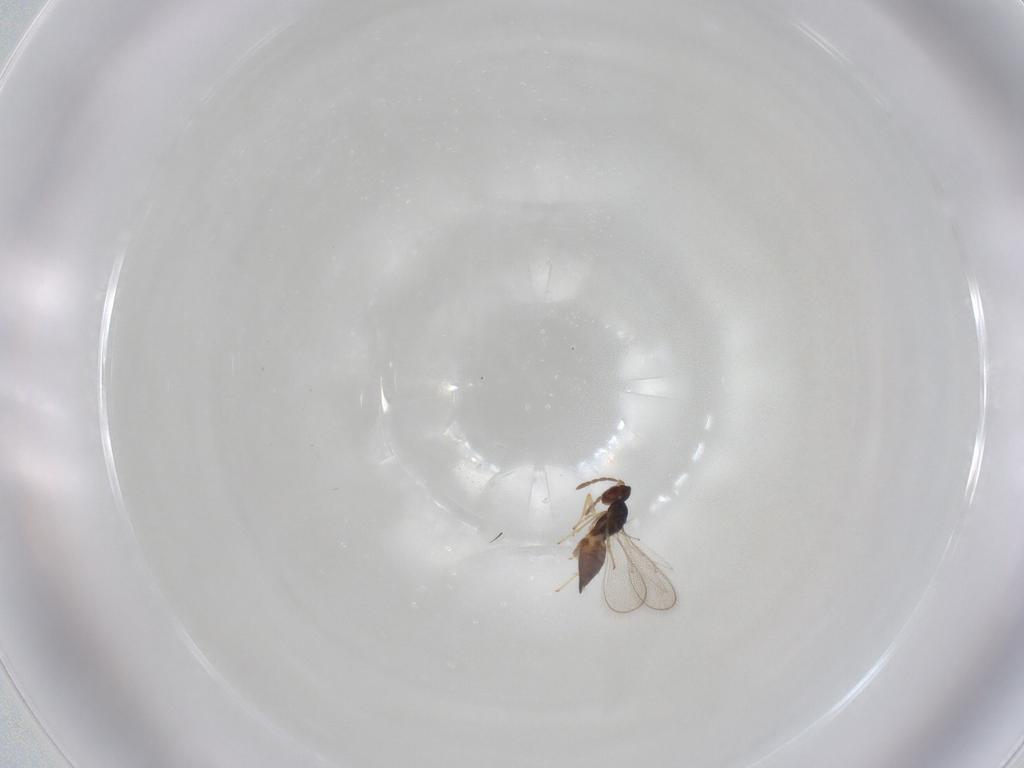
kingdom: Animalia
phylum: Arthropoda
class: Insecta
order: Hymenoptera
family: Eulophidae
